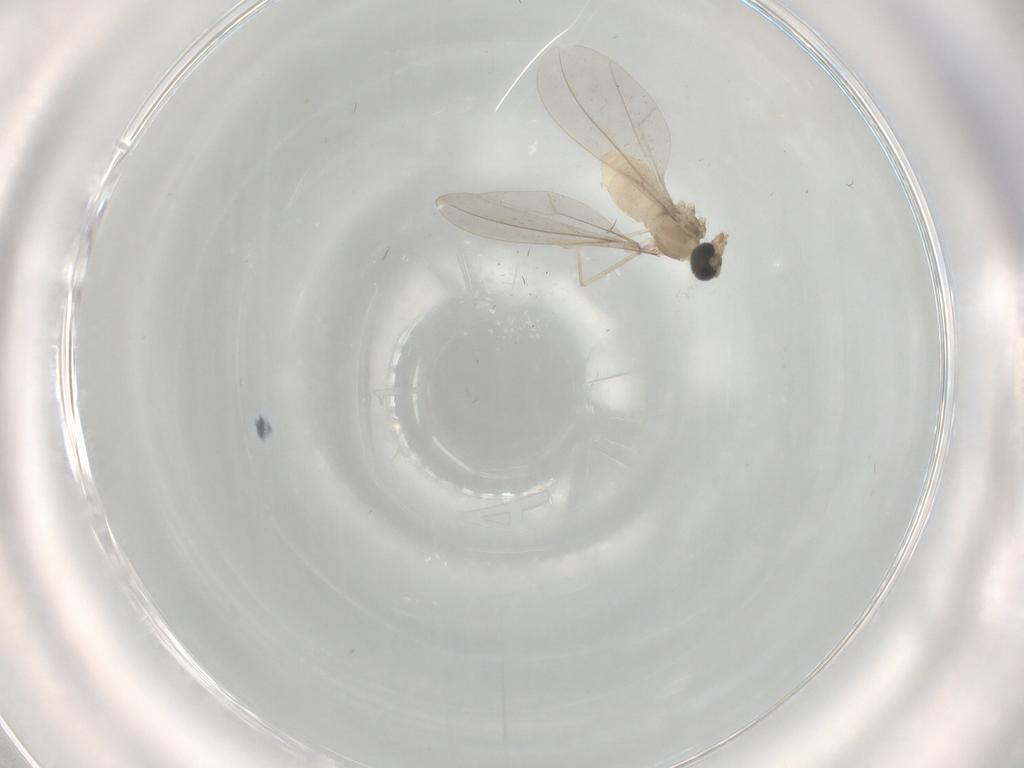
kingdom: Animalia
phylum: Arthropoda
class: Insecta
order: Diptera
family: Cecidomyiidae
